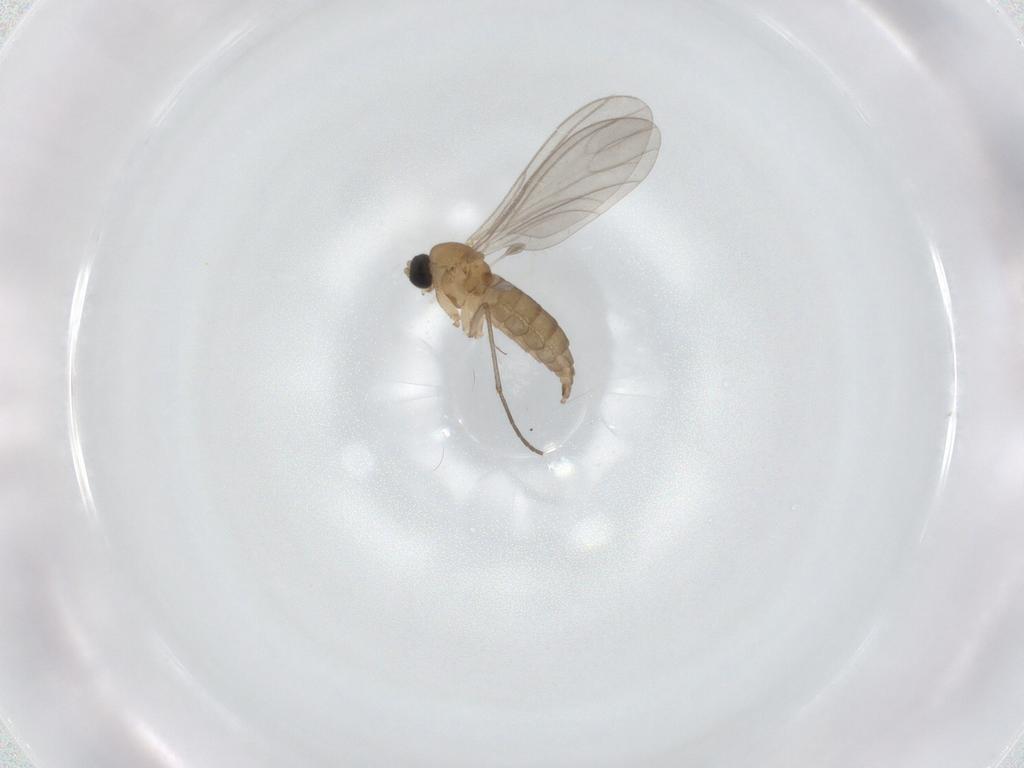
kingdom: Animalia
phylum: Arthropoda
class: Insecta
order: Diptera
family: Sciaridae
